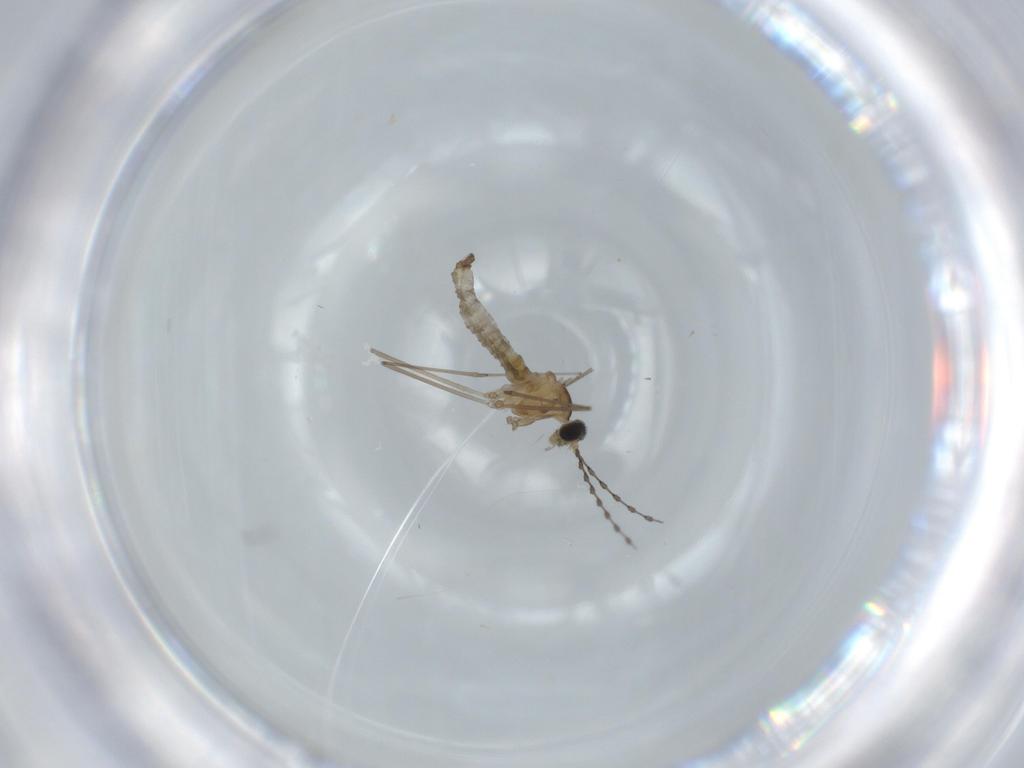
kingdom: Animalia
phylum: Arthropoda
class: Insecta
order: Diptera
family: Cecidomyiidae
